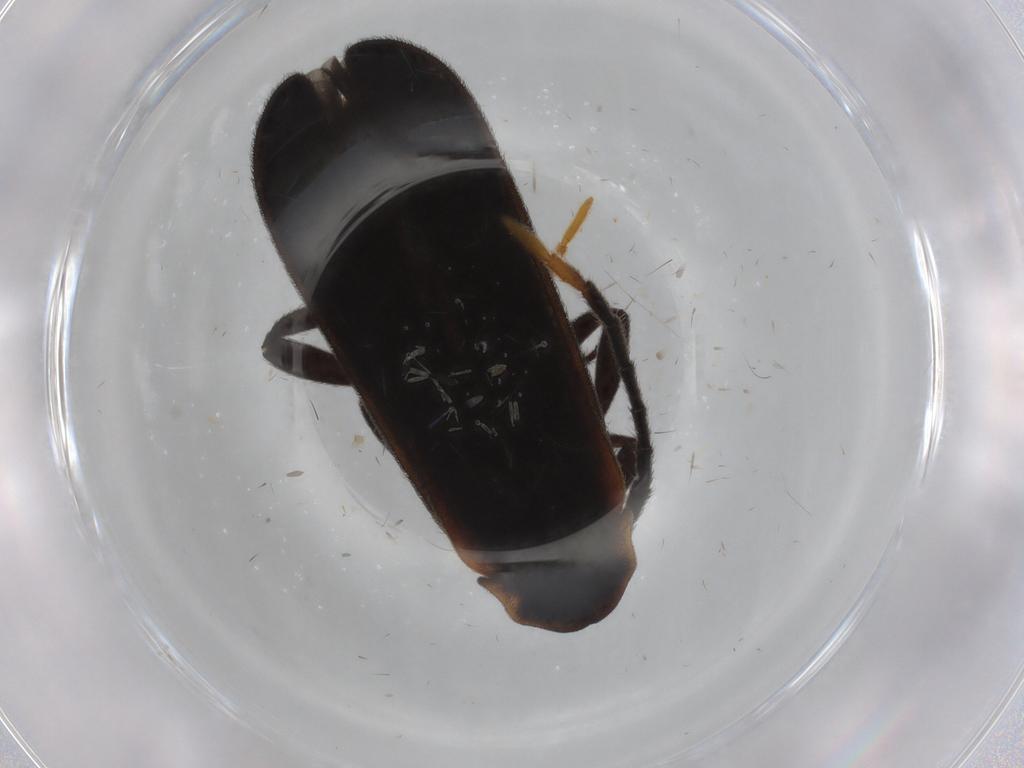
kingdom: Animalia
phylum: Arthropoda
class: Insecta
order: Coleoptera
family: Lycidae
